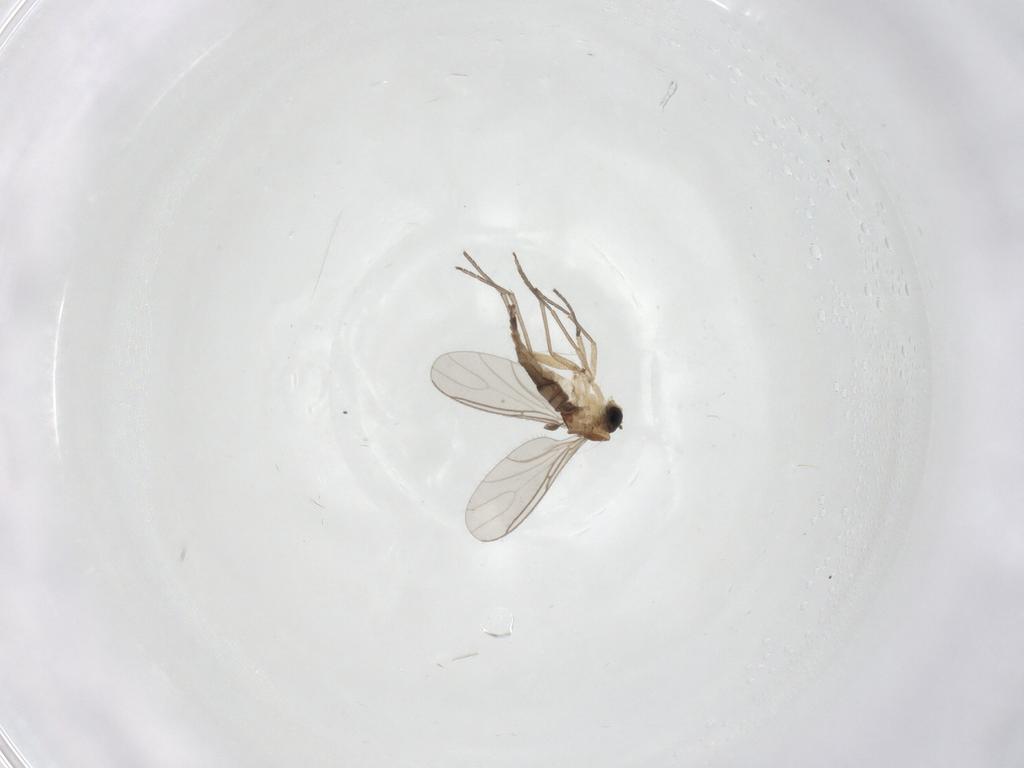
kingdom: Animalia
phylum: Arthropoda
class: Insecta
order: Diptera
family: Sciaridae
